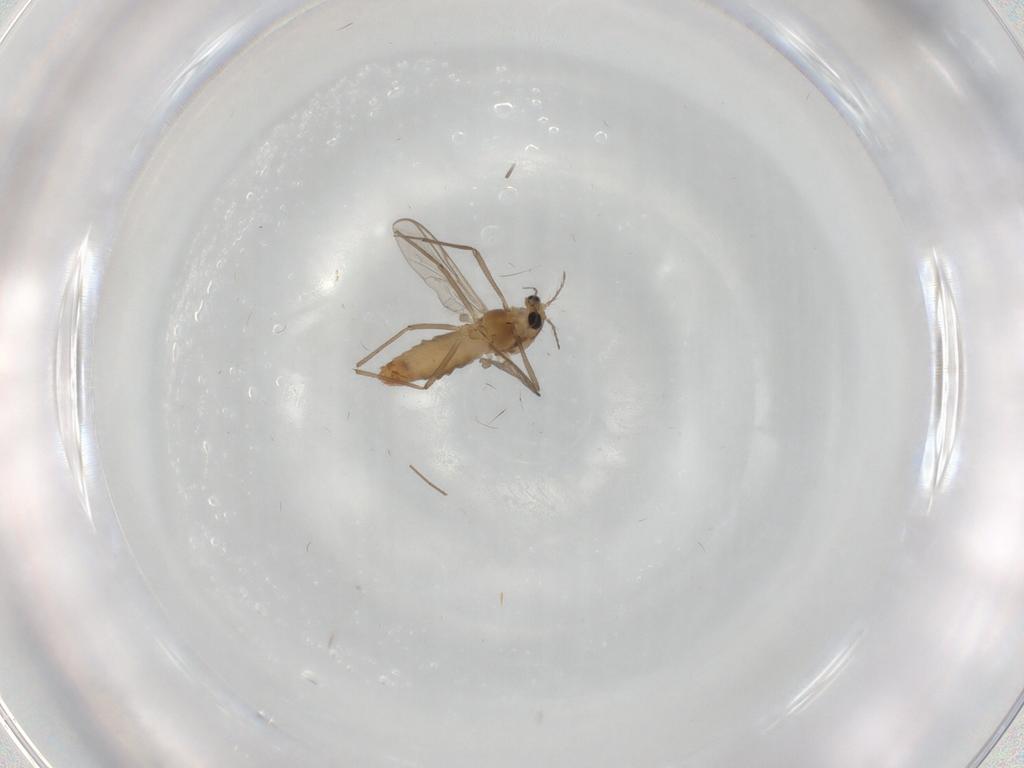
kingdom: Animalia
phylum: Arthropoda
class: Insecta
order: Diptera
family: Chironomidae
